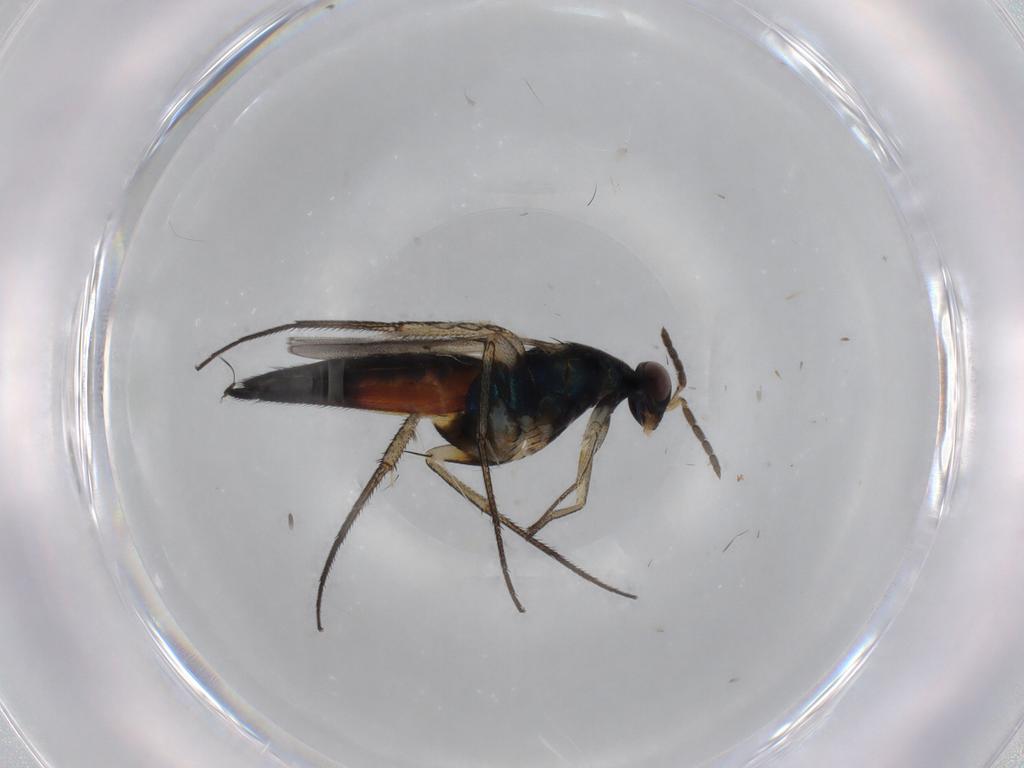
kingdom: Animalia
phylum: Arthropoda
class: Insecta
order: Hymenoptera
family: Eulophidae
